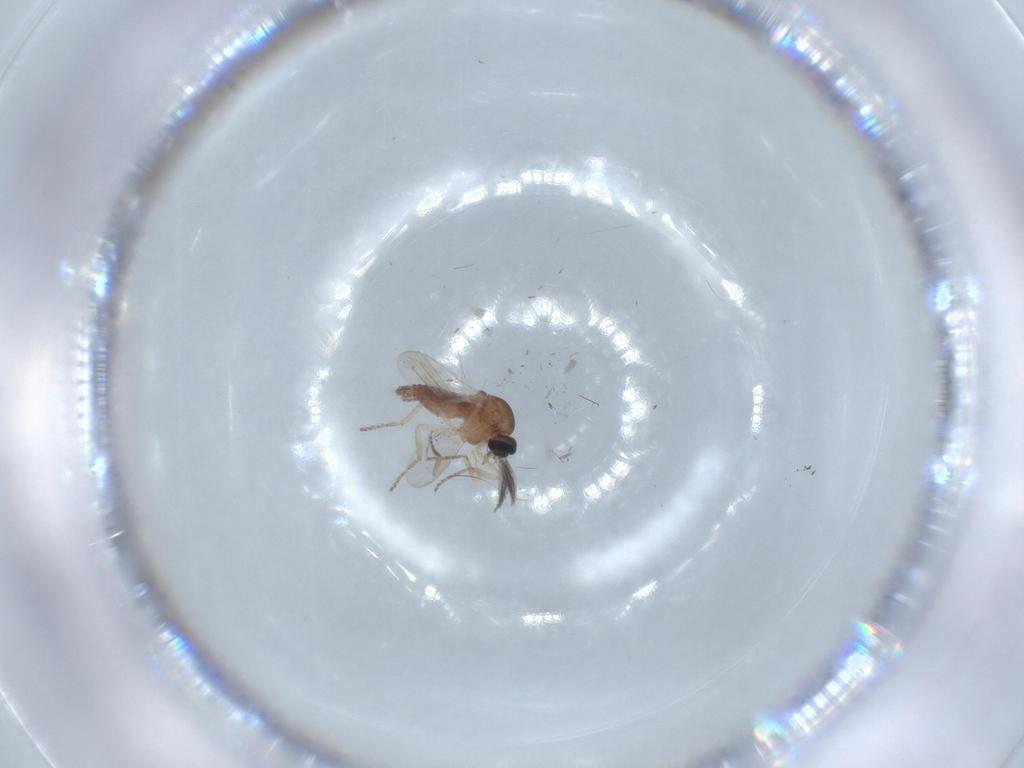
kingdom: Animalia
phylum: Arthropoda
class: Insecta
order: Diptera
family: Ceratopogonidae
